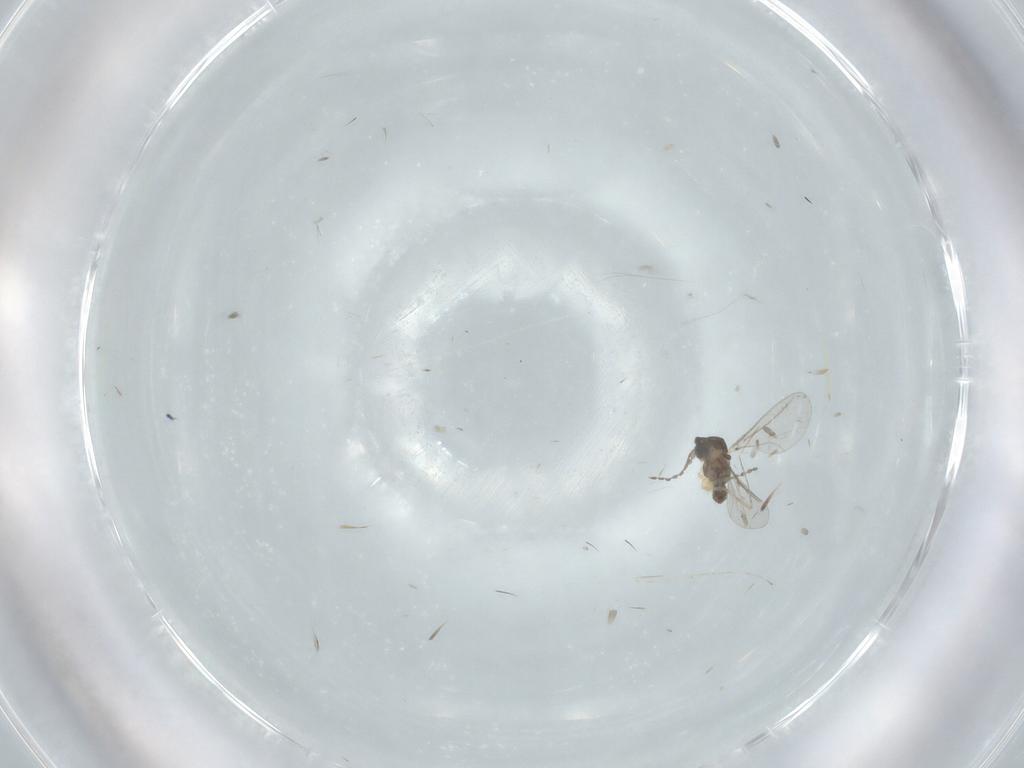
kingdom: Animalia
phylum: Arthropoda
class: Insecta
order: Diptera
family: Cecidomyiidae
